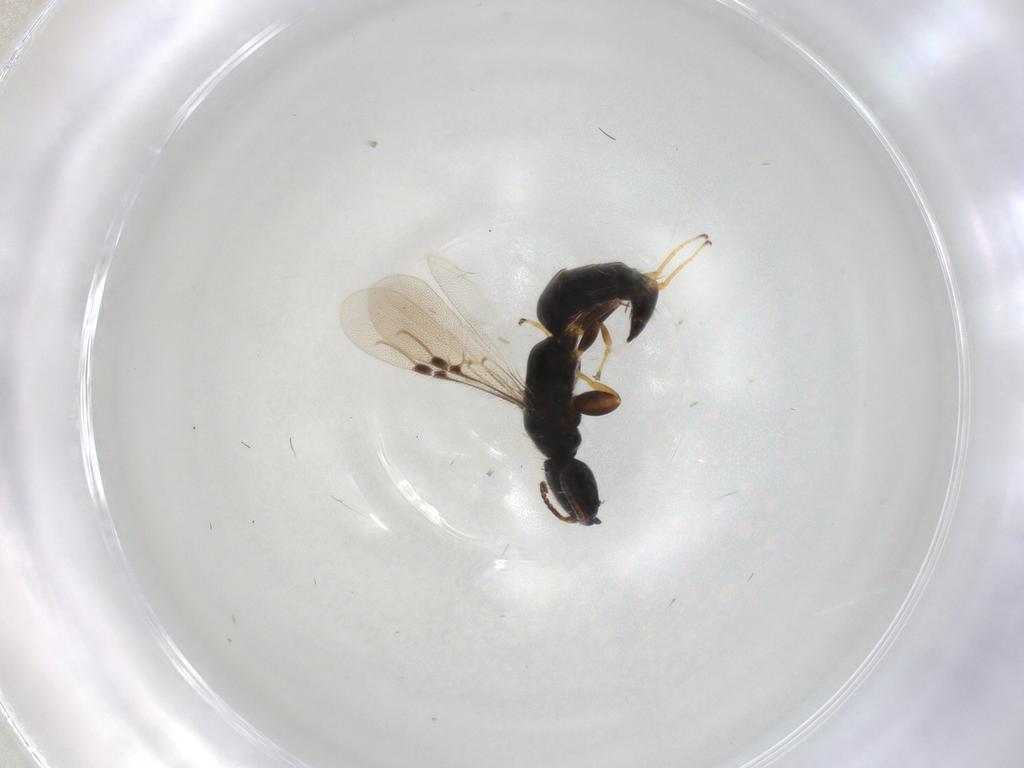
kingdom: Animalia
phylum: Arthropoda
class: Insecta
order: Hymenoptera
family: Bethylidae
